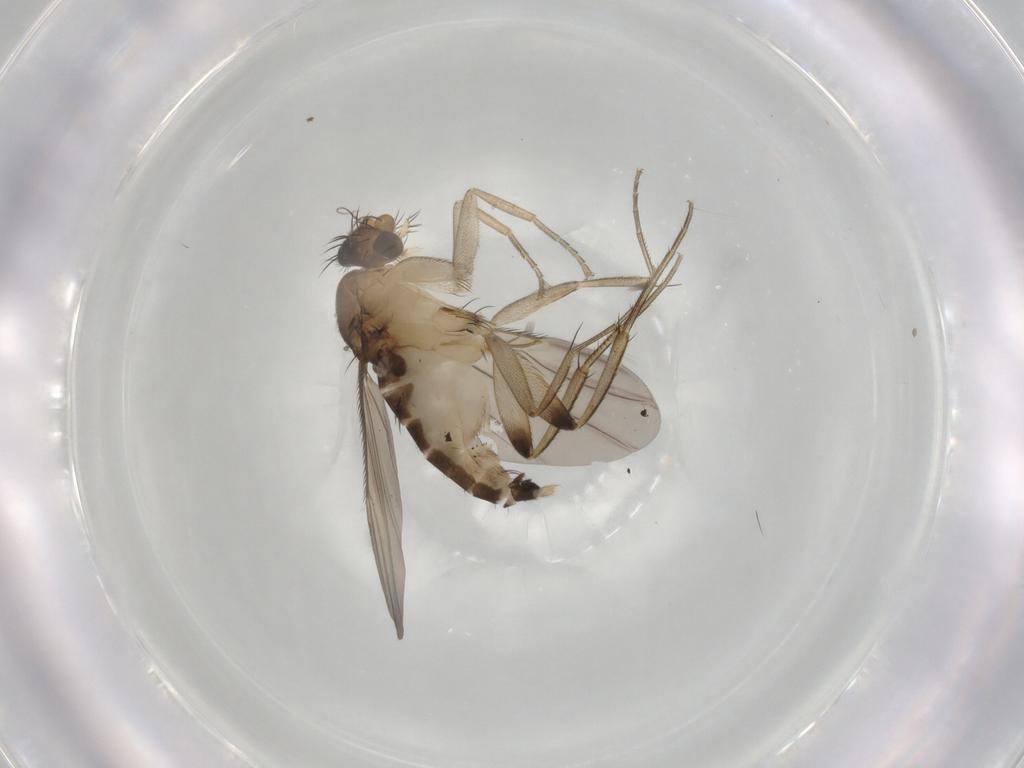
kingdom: Animalia
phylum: Arthropoda
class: Insecta
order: Diptera
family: Phoridae
